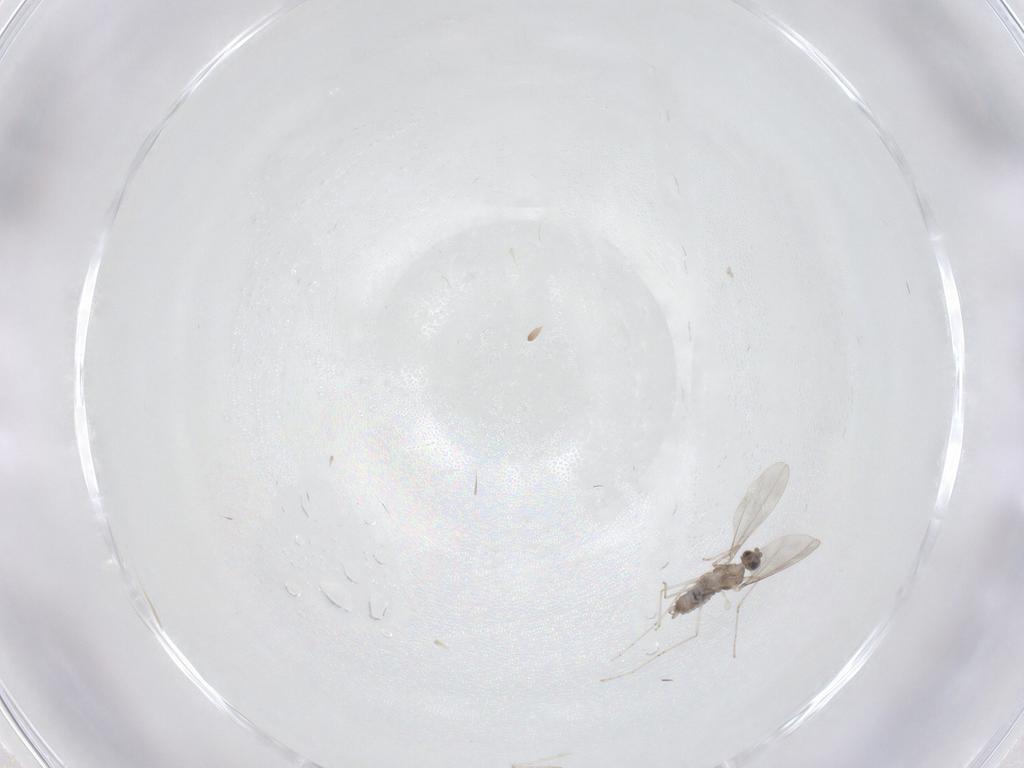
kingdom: Animalia
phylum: Arthropoda
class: Insecta
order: Diptera
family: Cecidomyiidae
